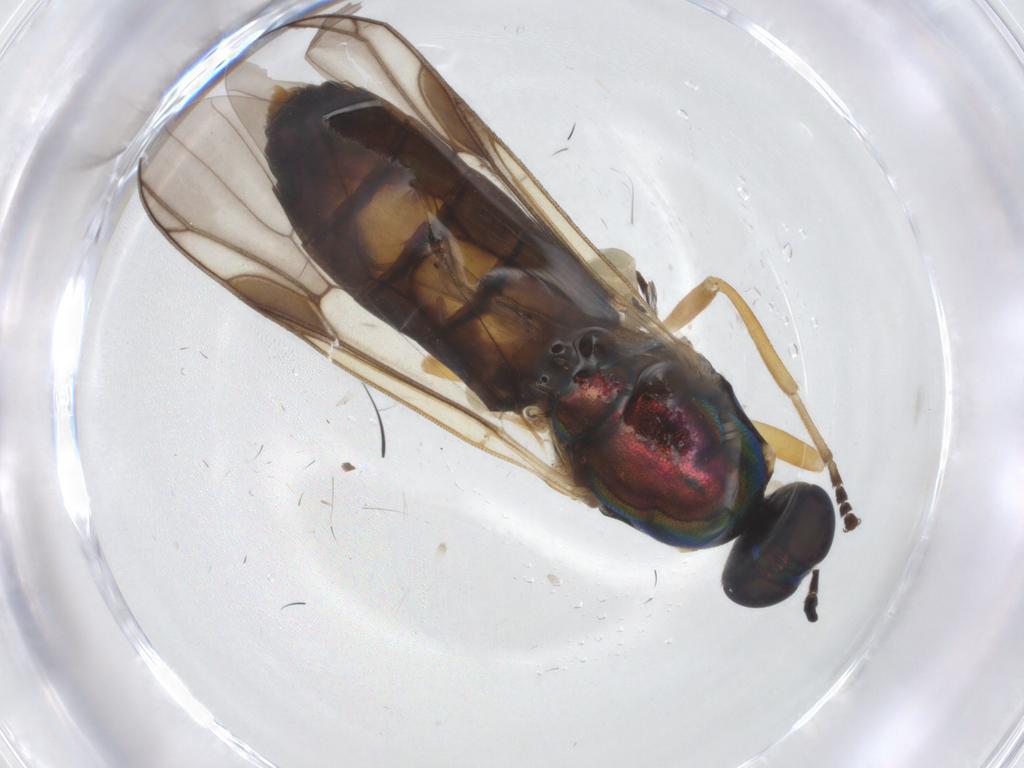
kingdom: Animalia
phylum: Arthropoda
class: Insecta
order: Diptera
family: Stratiomyidae
